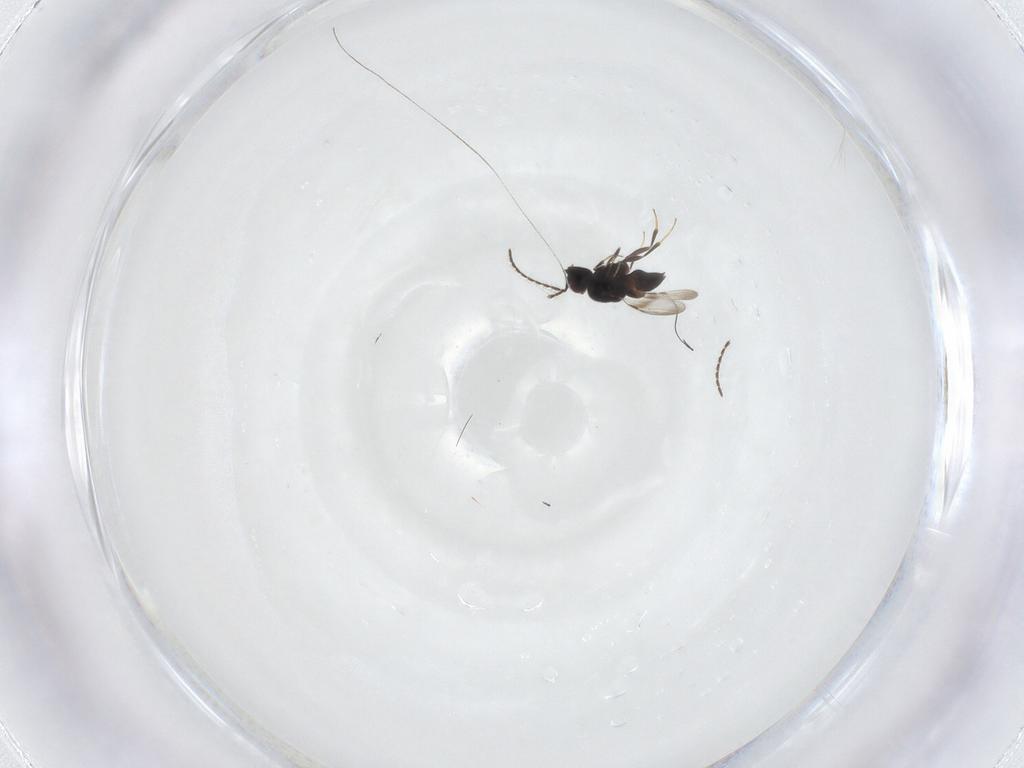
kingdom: Animalia
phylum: Arthropoda
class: Insecta
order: Hymenoptera
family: Ceraphronidae
